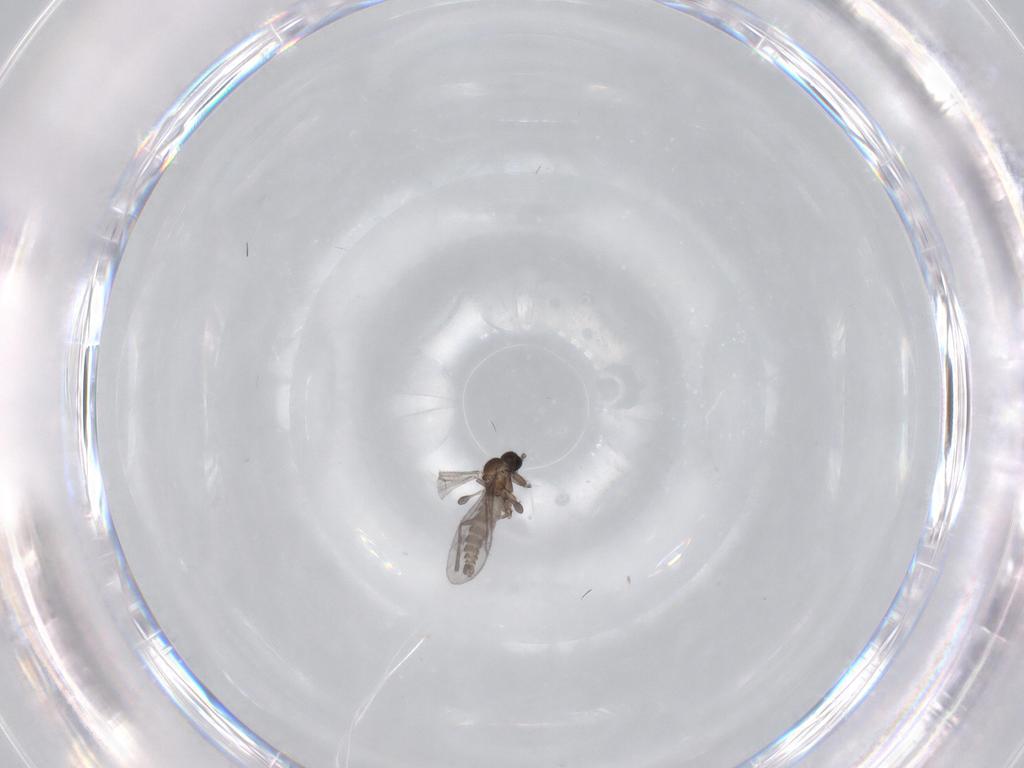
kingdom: Animalia
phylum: Arthropoda
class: Insecta
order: Diptera
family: Sciaridae
